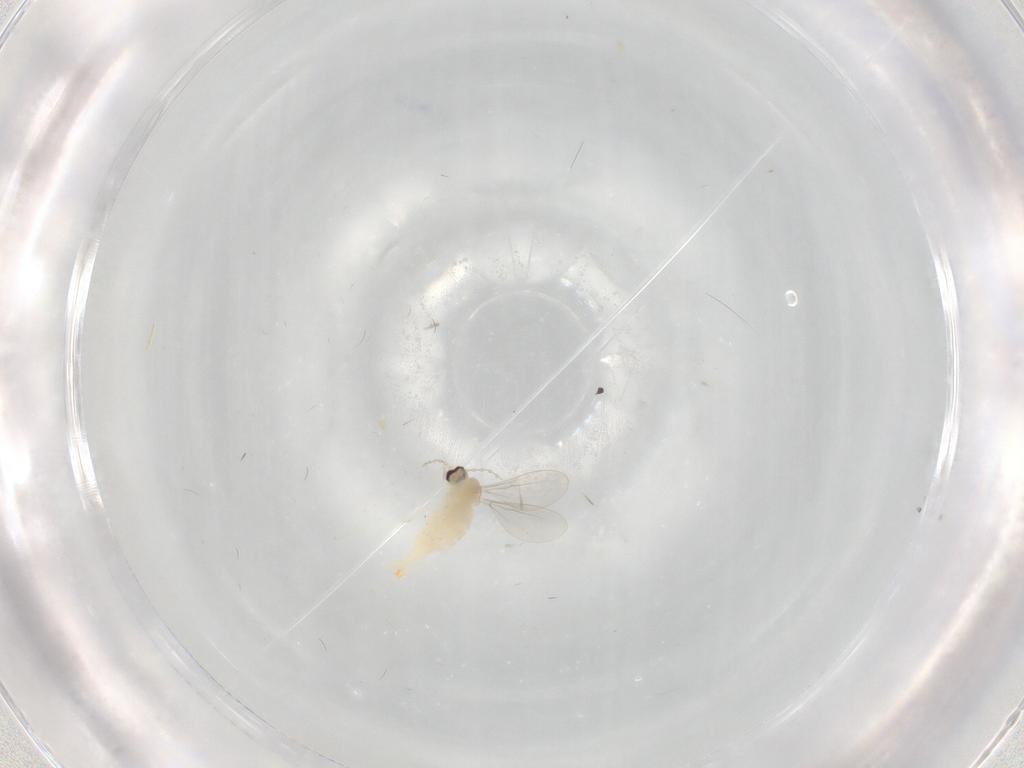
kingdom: Animalia
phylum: Arthropoda
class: Insecta
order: Diptera
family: Cecidomyiidae
